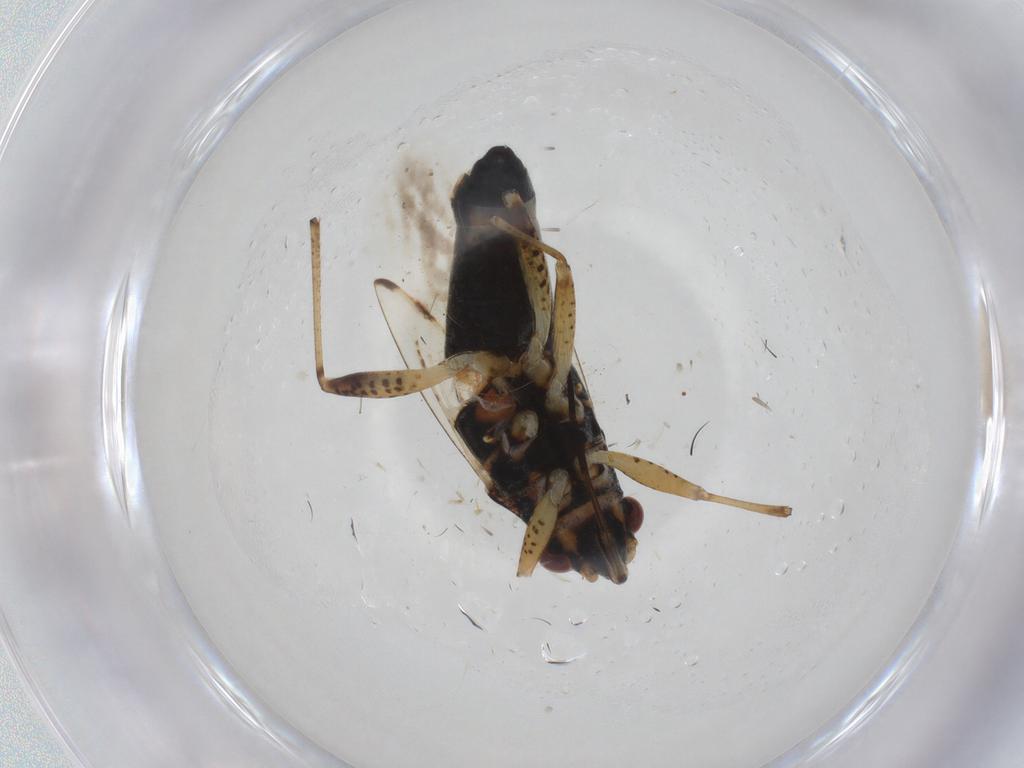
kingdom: Animalia
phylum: Arthropoda
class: Insecta
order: Hemiptera
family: Lygaeidae
